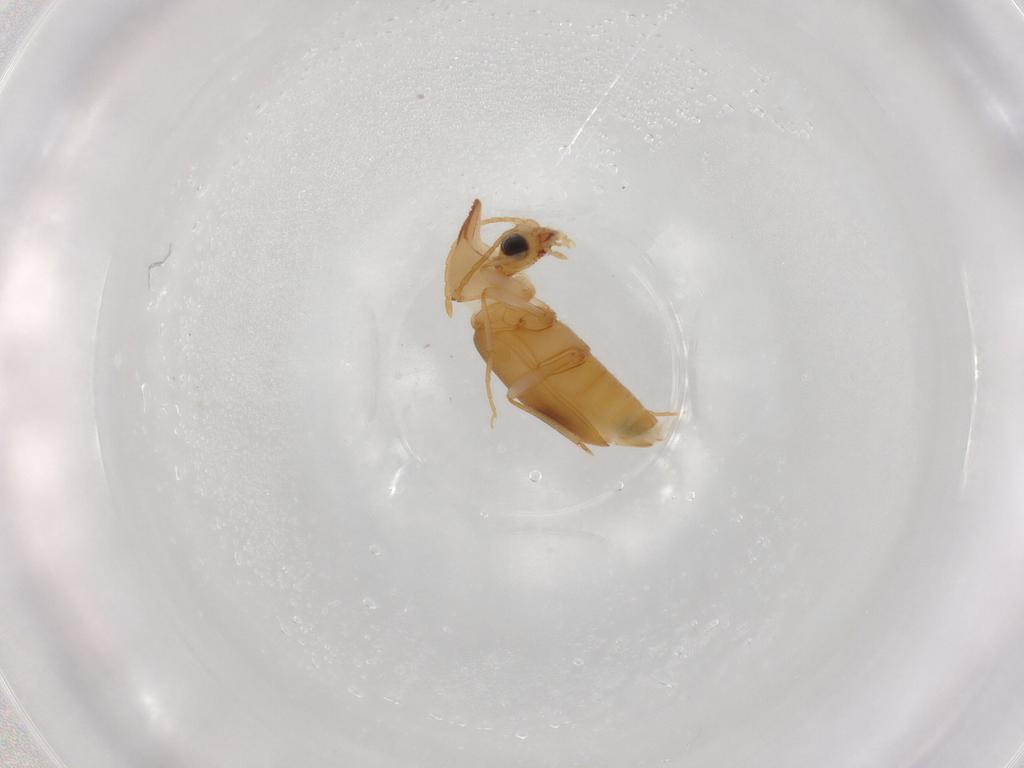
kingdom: Animalia
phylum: Arthropoda
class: Insecta
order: Coleoptera
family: Anthicidae
